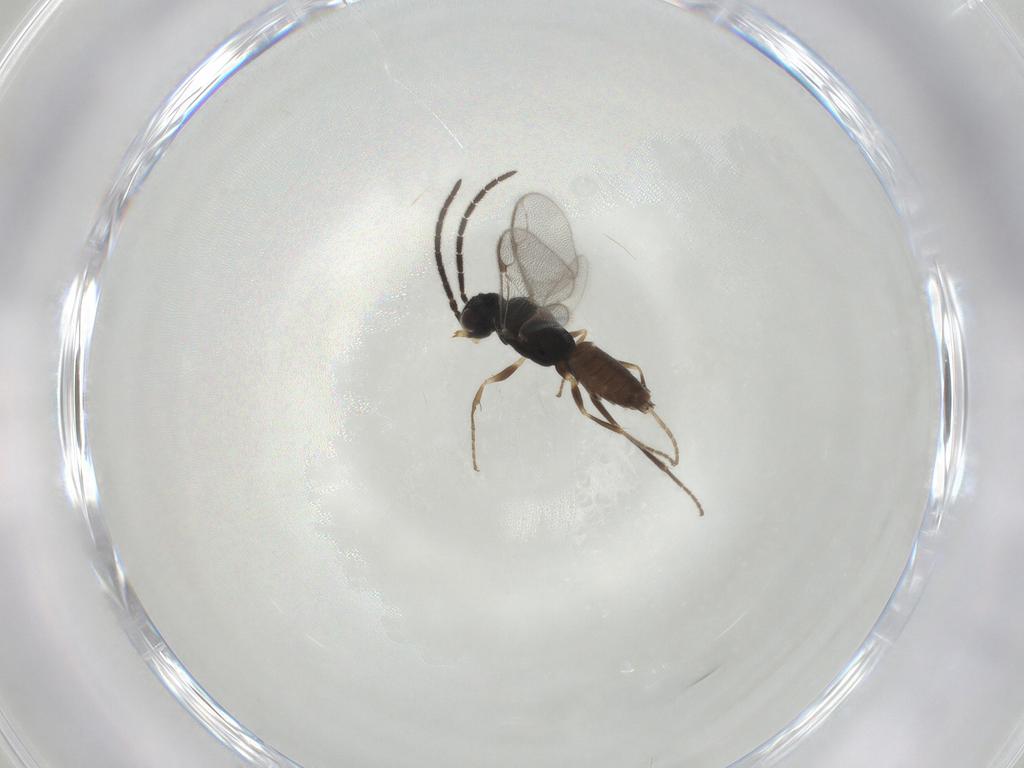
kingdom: Animalia
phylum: Arthropoda
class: Insecta
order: Hymenoptera
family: Dryinidae
